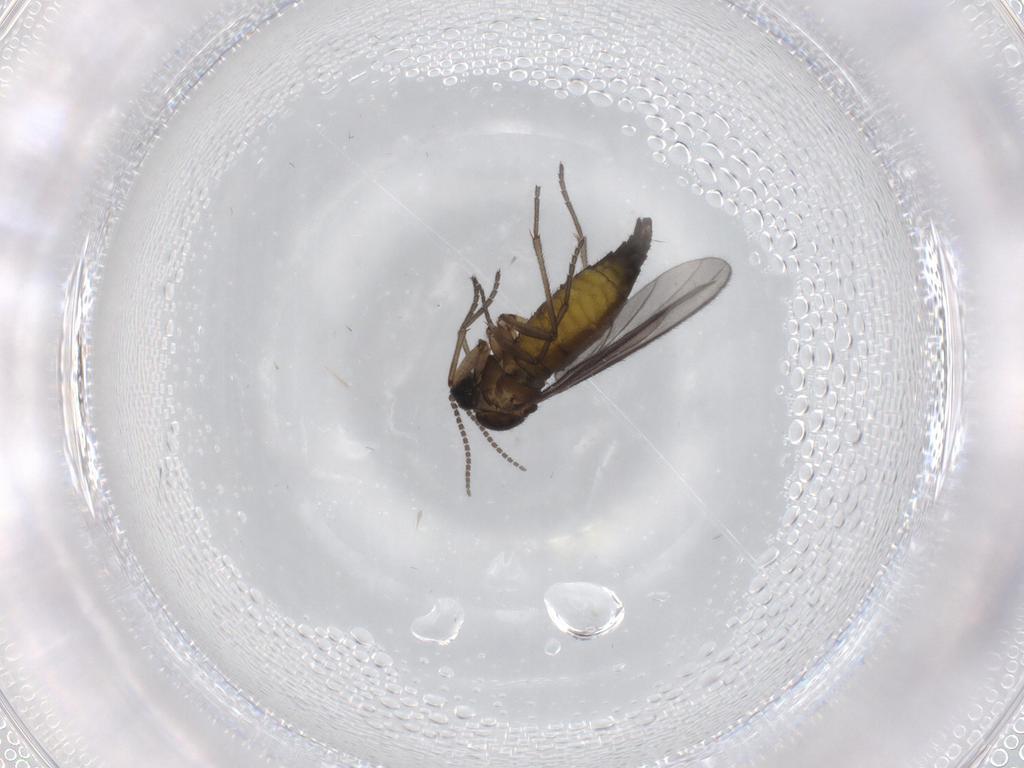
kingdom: Animalia
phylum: Arthropoda
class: Insecta
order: Diptera
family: Sciaridae
